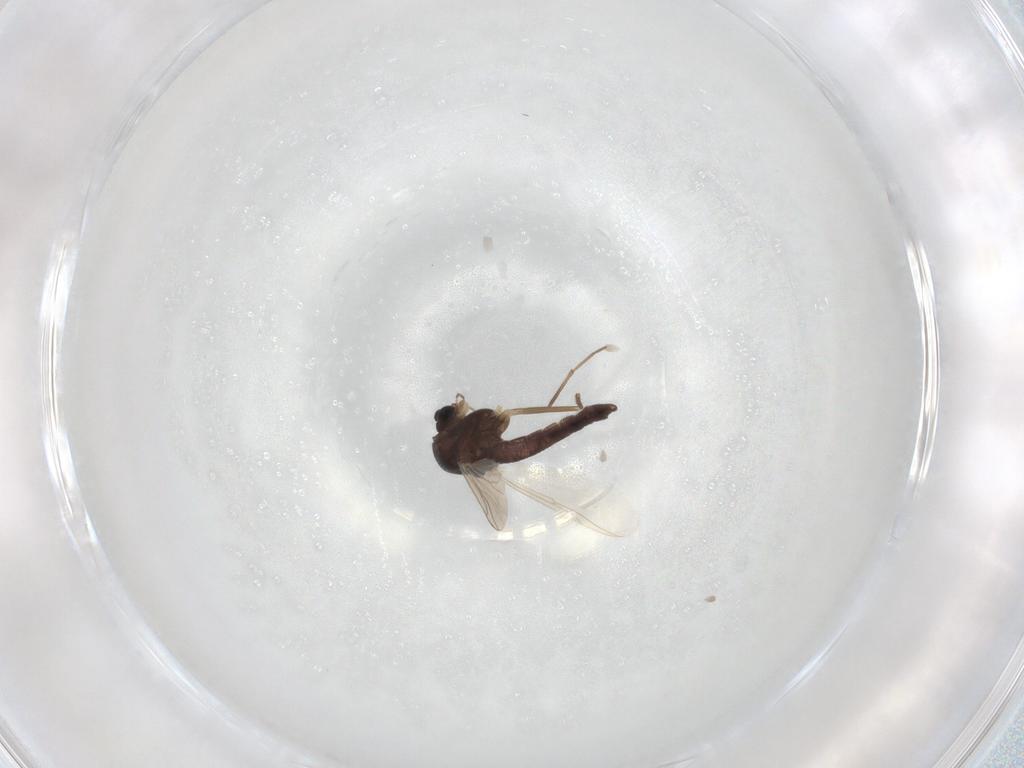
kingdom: Animalia
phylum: Arthropoda
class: Insecta
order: Diptera
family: Chironomidae
